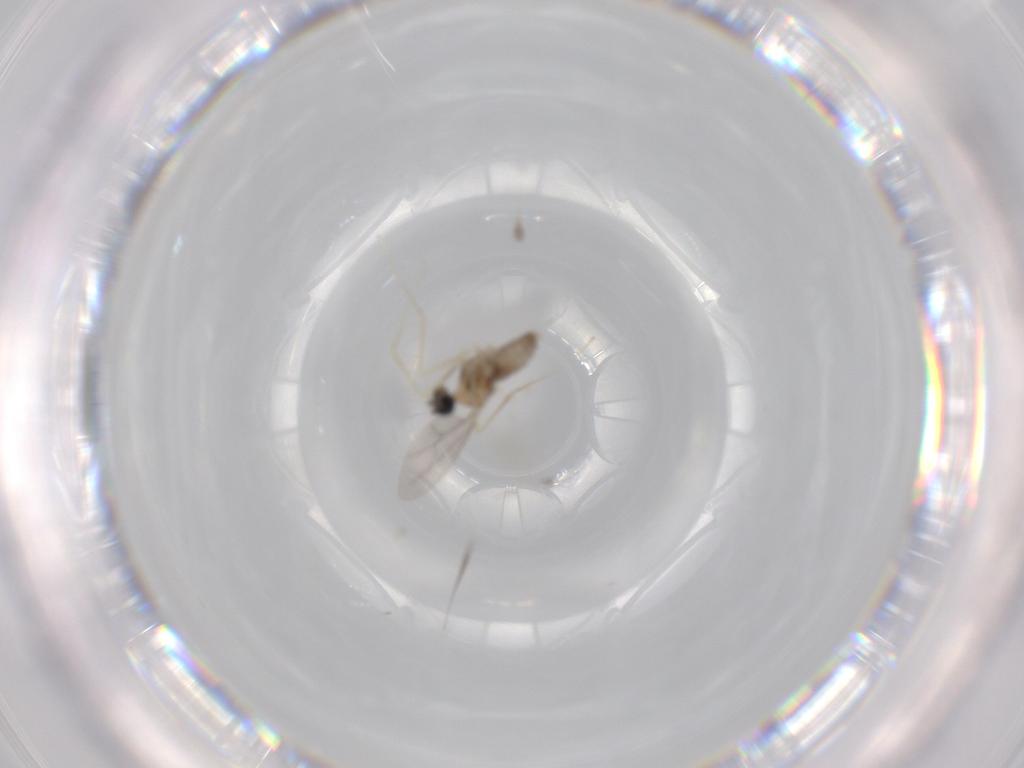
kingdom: Animalia
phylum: Arthropoda
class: Insecta
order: Diptera
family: Cecidomyiidae
